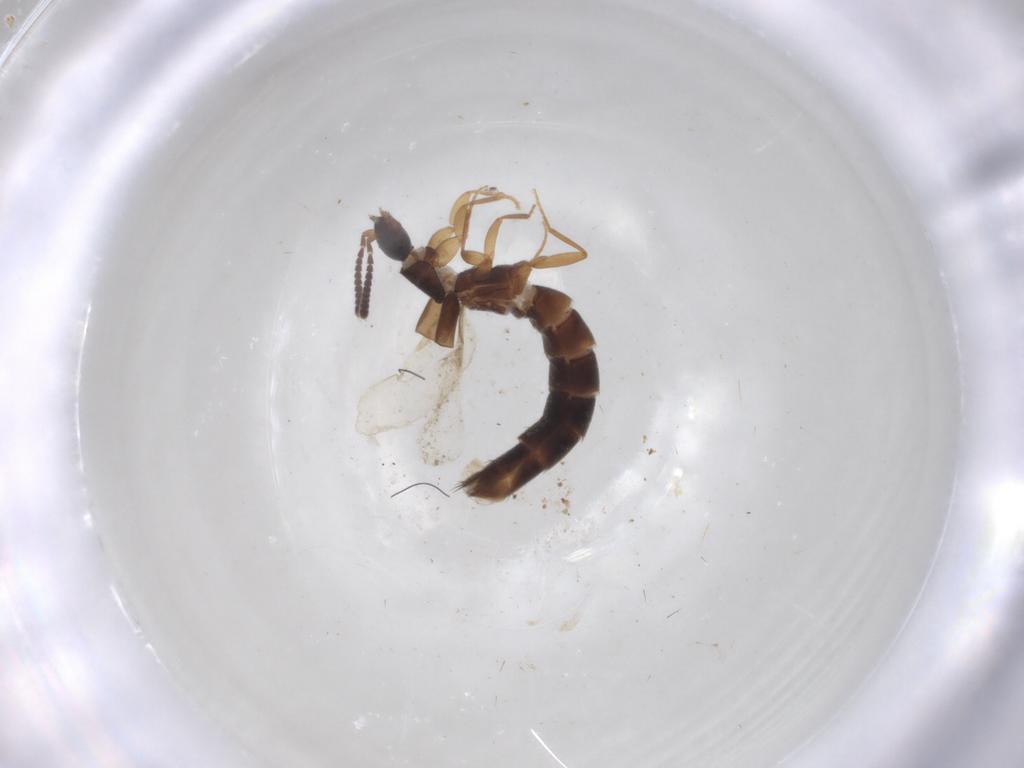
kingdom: Animalia
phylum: Arthropoda
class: Insecta
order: Coleoptera
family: Staphylinidae
